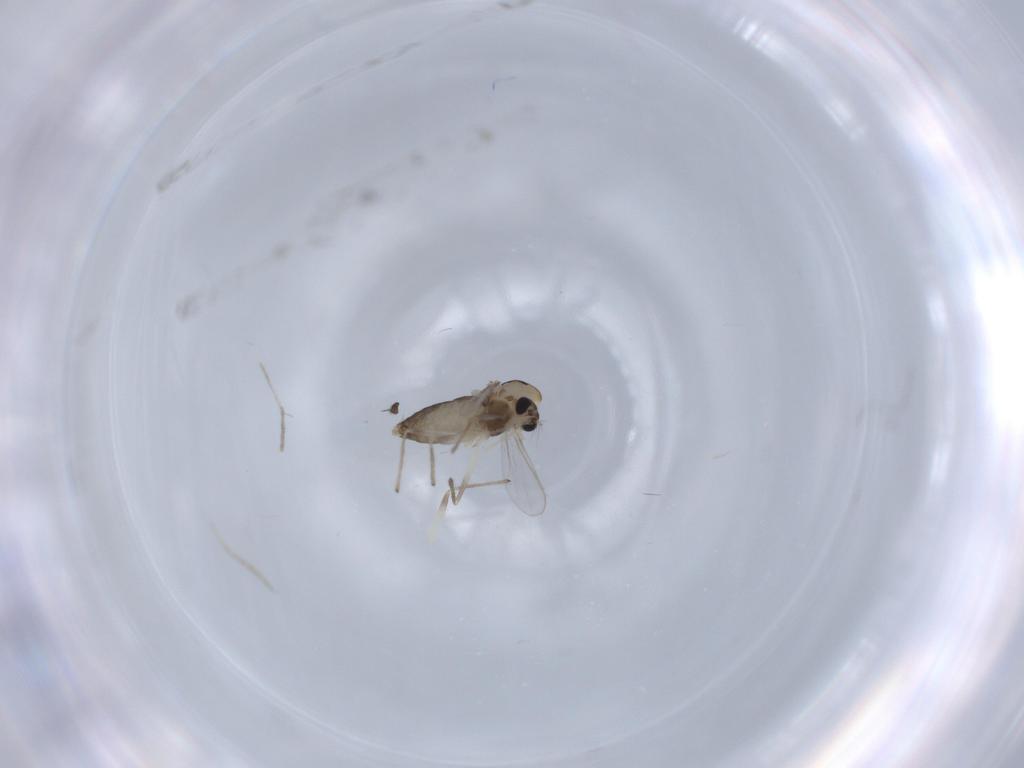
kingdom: Animalia
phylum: Arthropoda
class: Insecta
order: Diptera
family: Chironomidae
